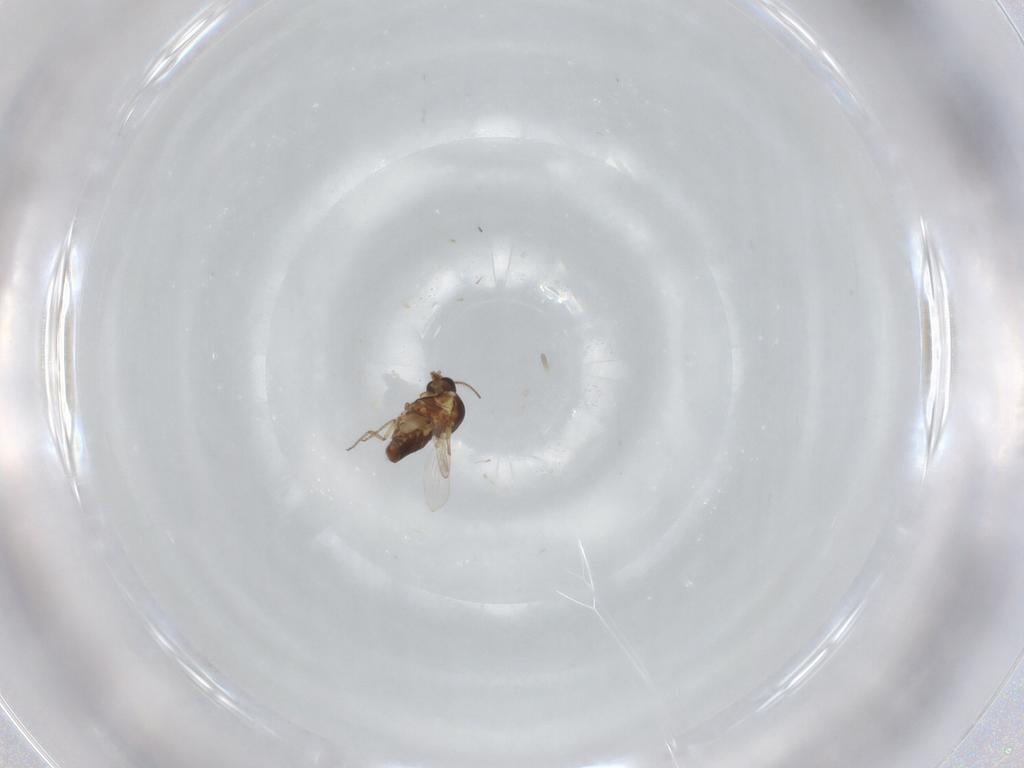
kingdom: Animalia
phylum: Arthropoda
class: Insecta
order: Diptera
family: Ceratopogonidae
